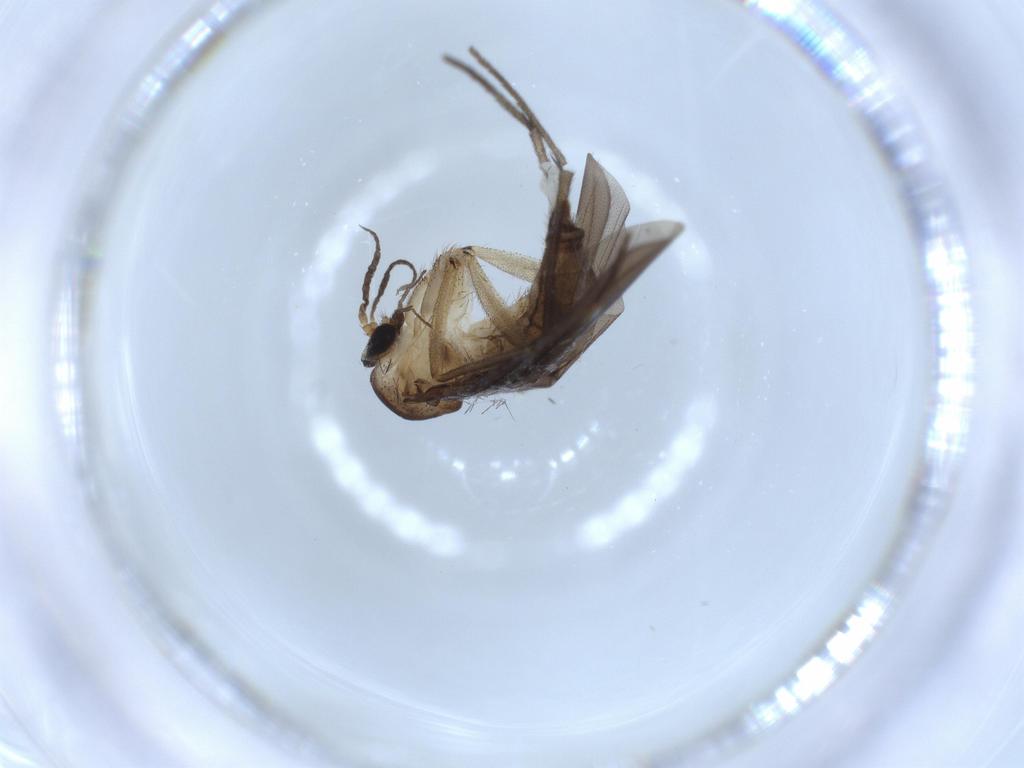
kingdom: Animalia
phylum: Arthropoda
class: Insecta
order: Diptera
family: Diadocidiidae
